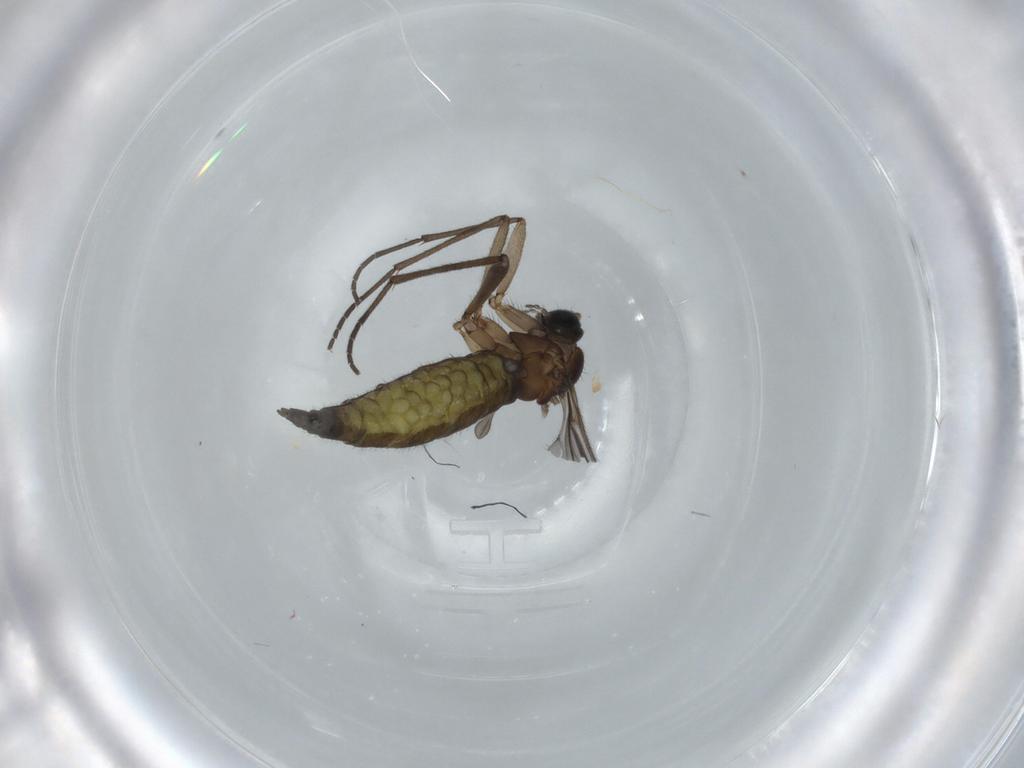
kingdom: Animalia
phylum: Arthropoda
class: Insecta
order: Diptera
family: Sciaridae
